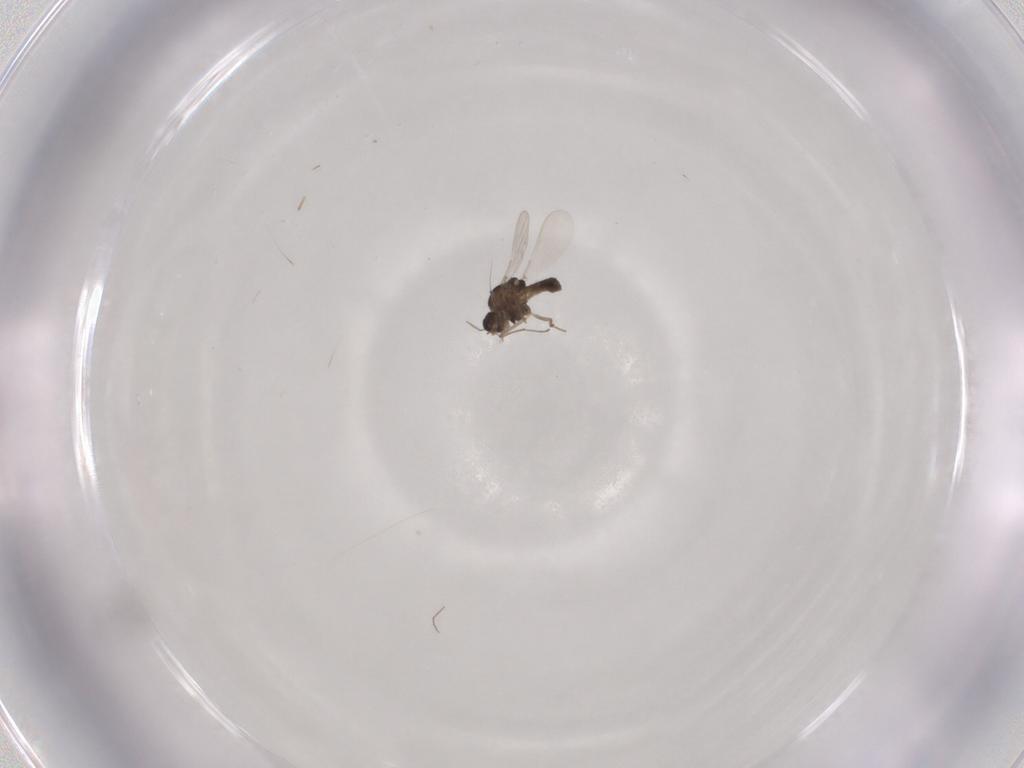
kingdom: Animalia
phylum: Arthropoda
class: Insecta
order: Diptera
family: Chironomidae
